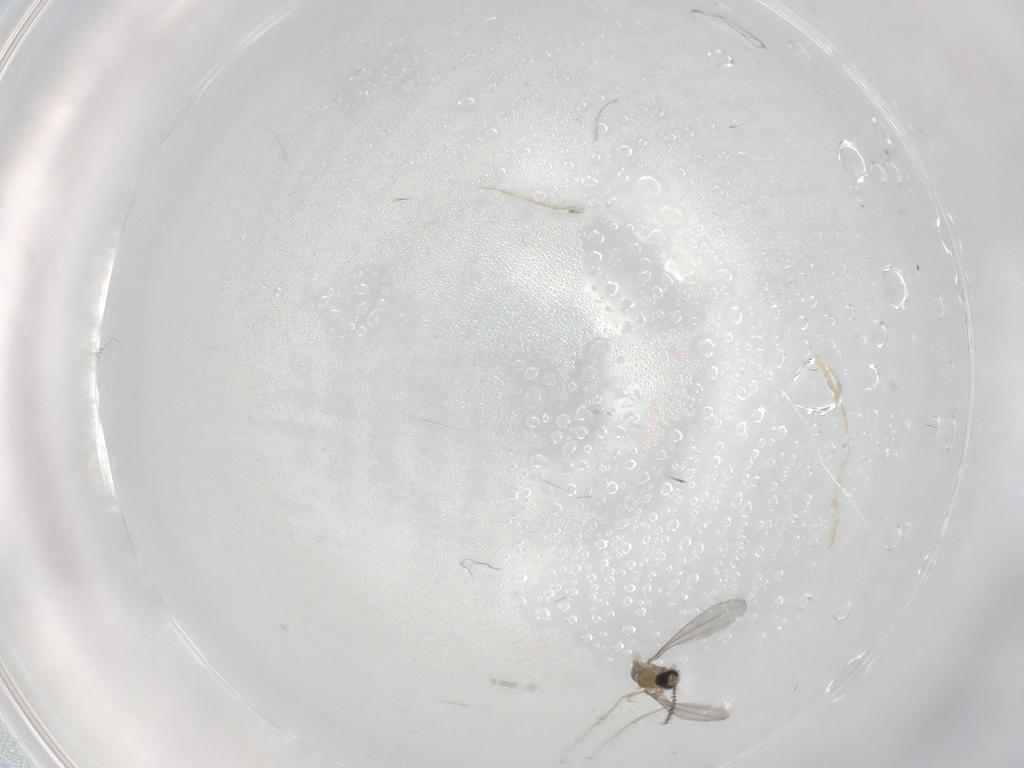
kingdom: Animalia
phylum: Arthropoda
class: Insecta
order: Diptera
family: Cecidomyiidae
